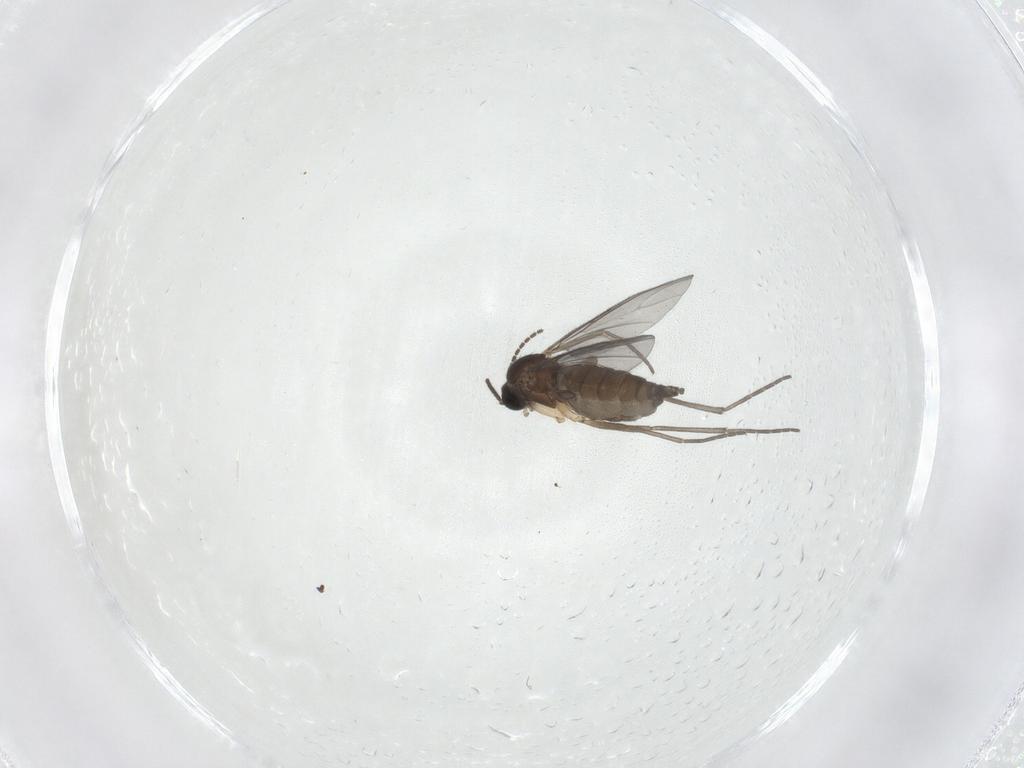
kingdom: Animalia
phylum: Arthropoda
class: Insecta
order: Diptera
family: Sciaridae
